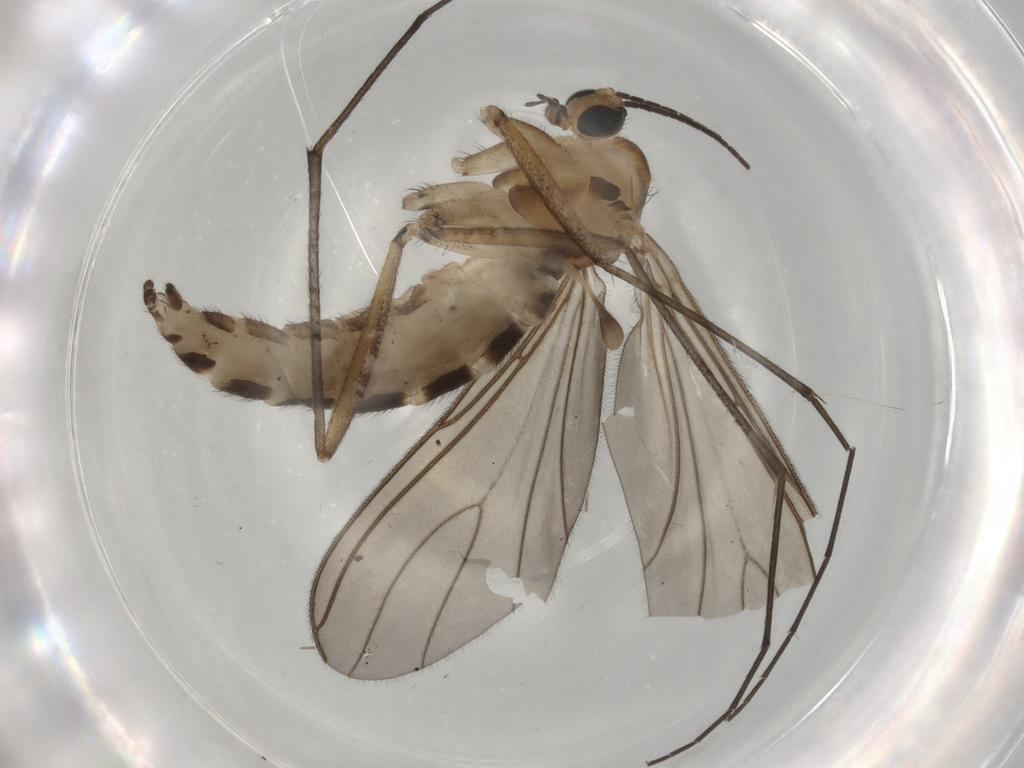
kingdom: Animalia
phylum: Arthropoda
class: Insecta
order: Diptera
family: Sciaridae
